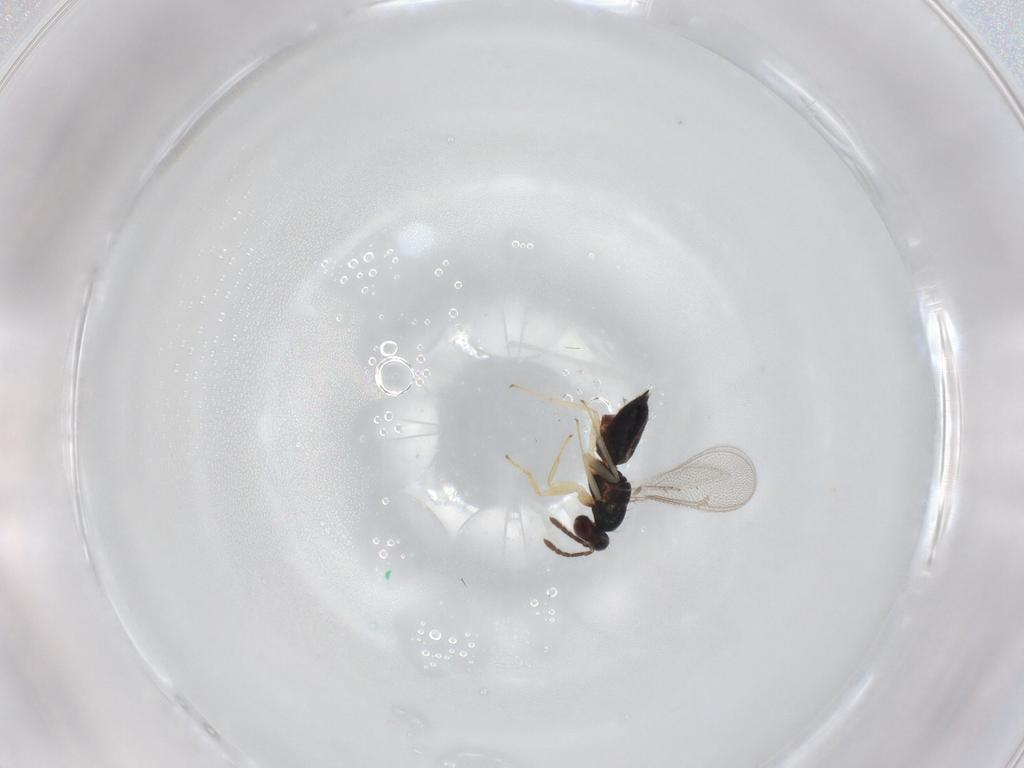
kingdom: Animalia
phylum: Arthropoda
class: Insecta
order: Hymenoptera
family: Eulophidae
